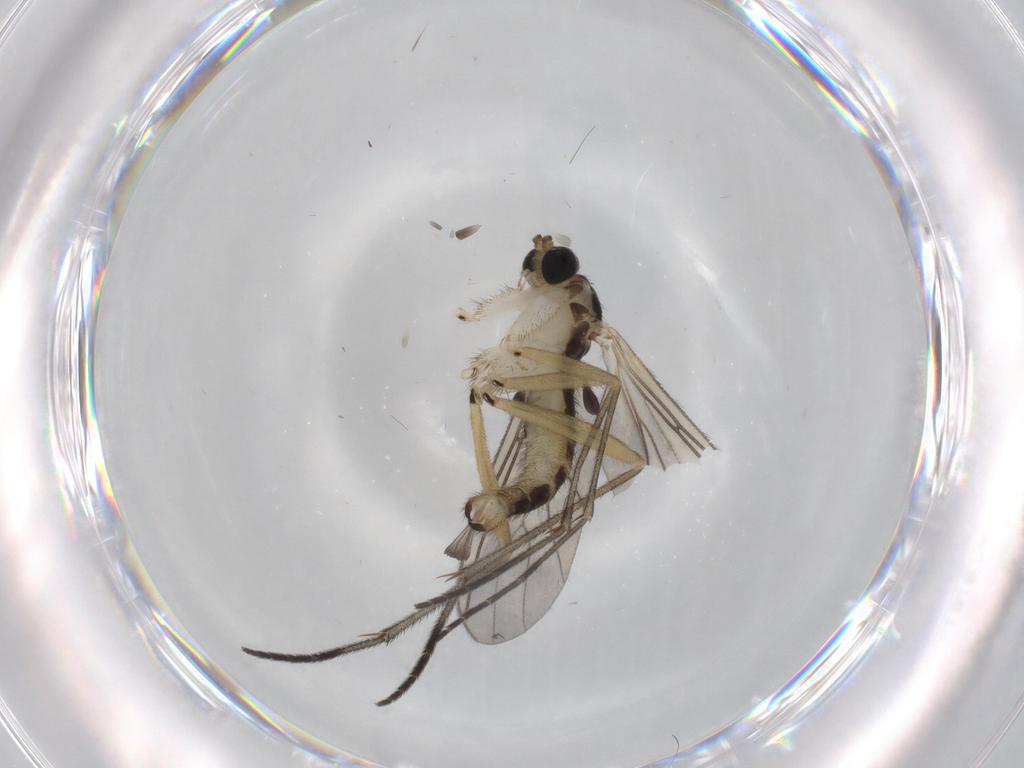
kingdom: Animalia
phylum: Arthropoda
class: Insecta
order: Diptera
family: Sciaridae
